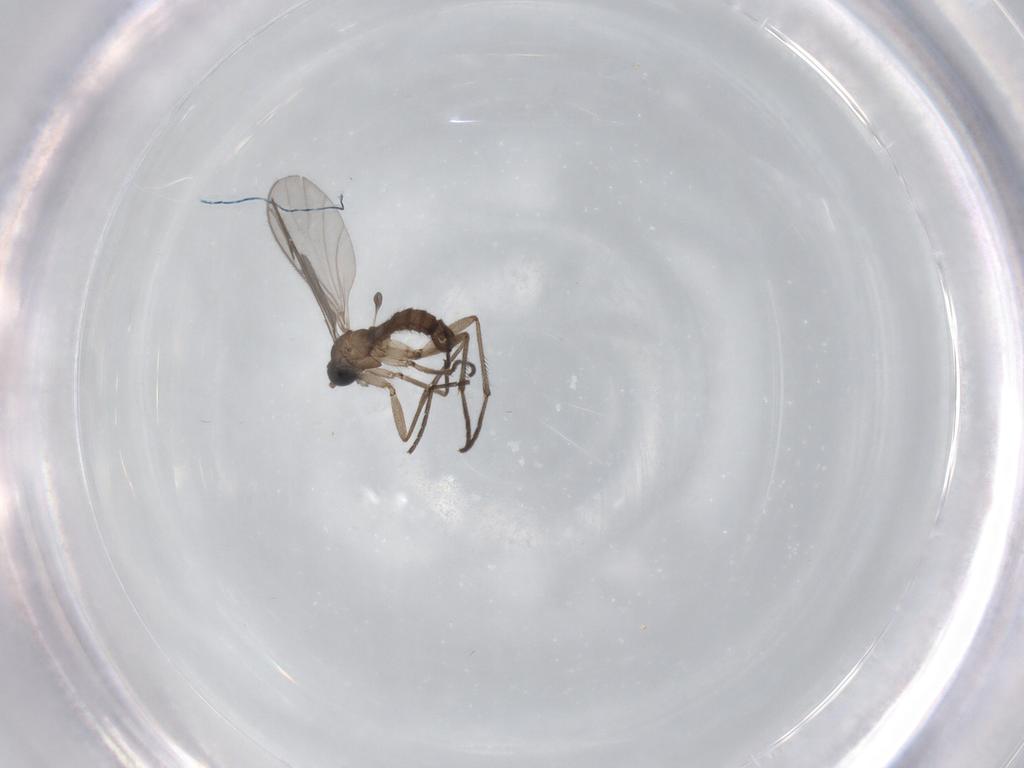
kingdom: Animalia
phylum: Arthropoda
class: Insecta
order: Diptera
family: Sciaridae
